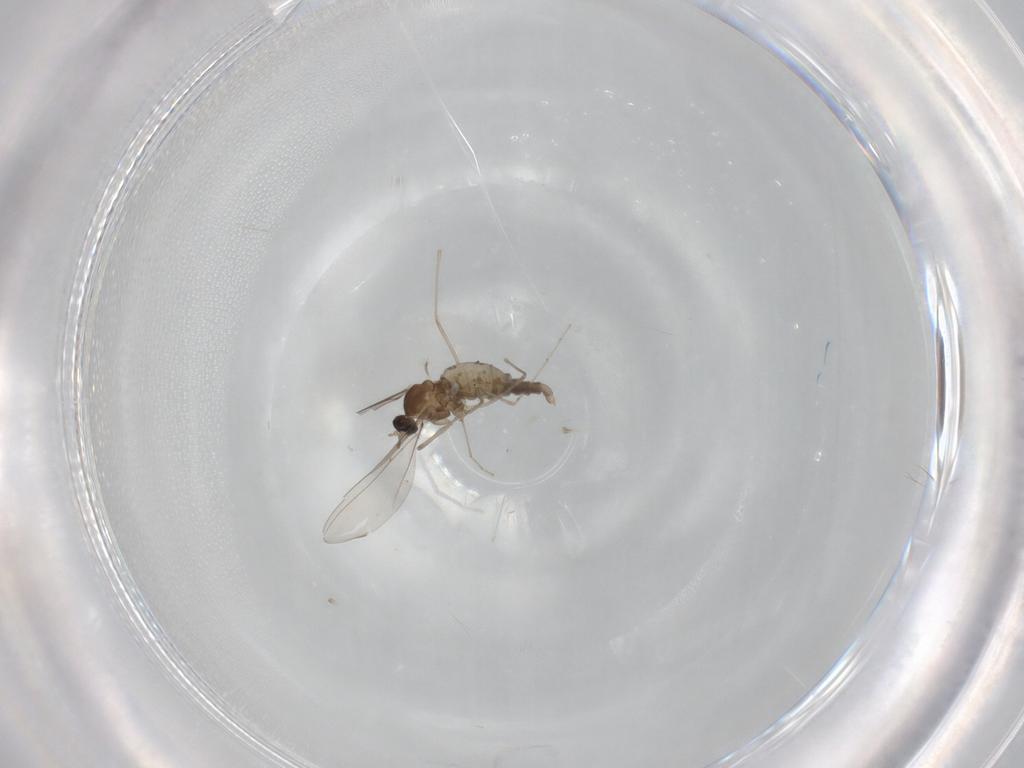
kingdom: Animalia
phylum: Arthropoda
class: Insecta
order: Diptera
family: Cecidomyiidae
